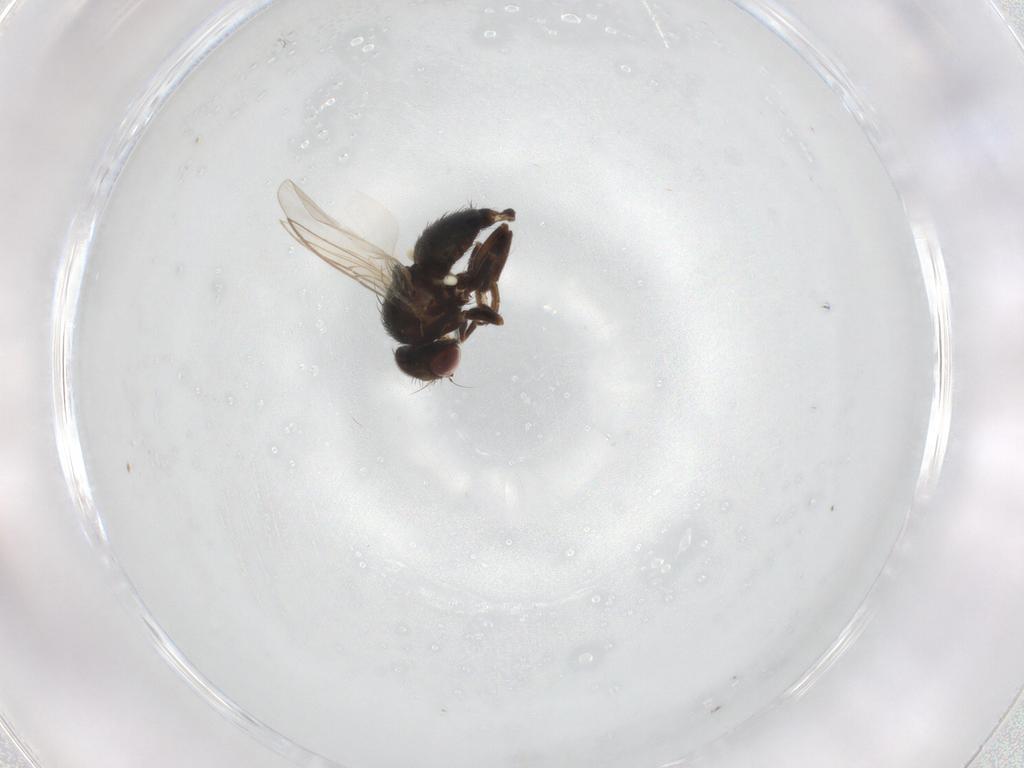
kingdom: Animalia
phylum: Arthropoda
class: Insecta
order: Diptera
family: Agromyzidae
